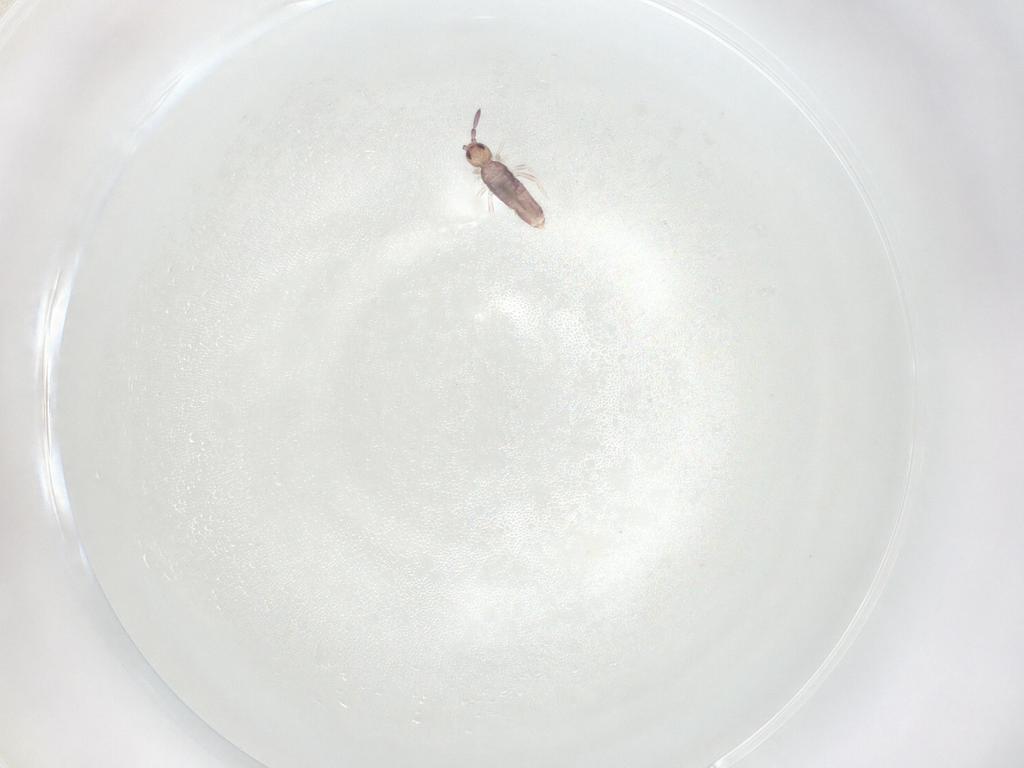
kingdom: Animalia
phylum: Arthropoda
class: Collembola
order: Entomobryomorpha
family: Entomobryidae
